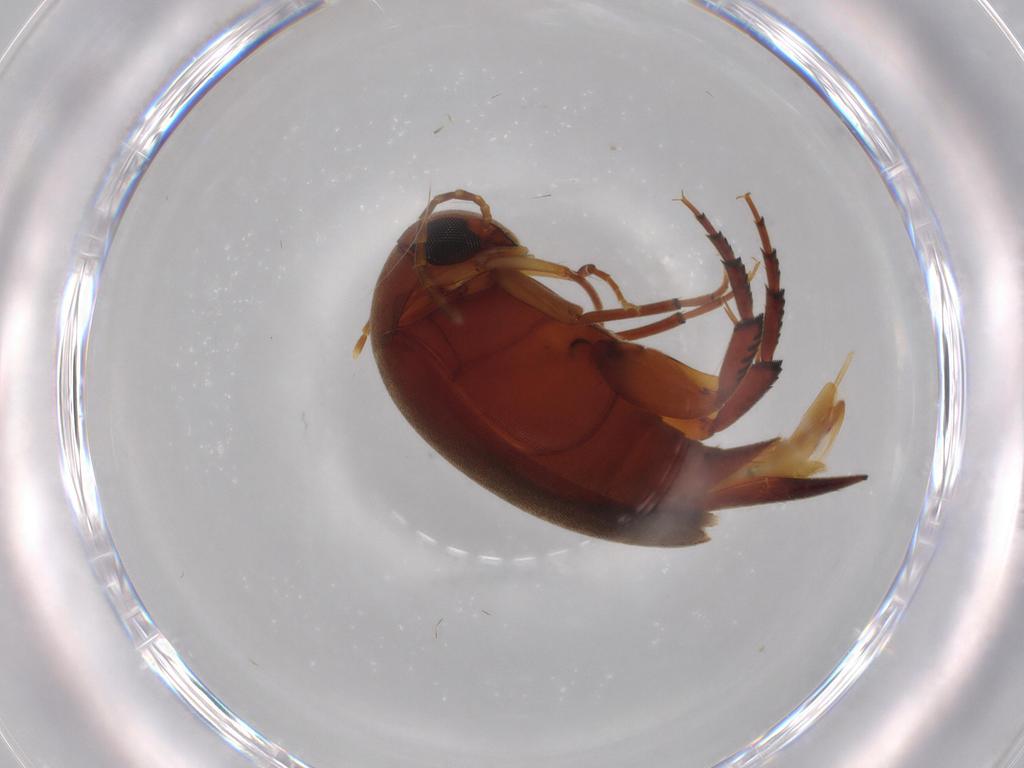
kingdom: Animalia
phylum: Arthropoda
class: Insecta
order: Coleoptera
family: Mordellidae
